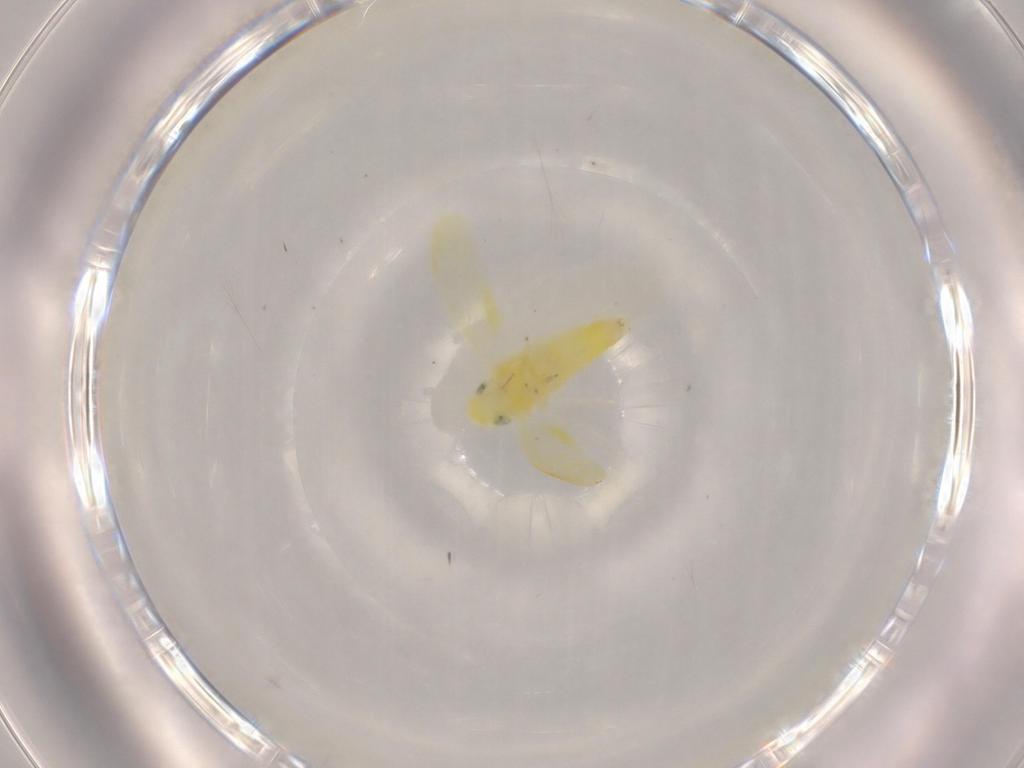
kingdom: Animalia
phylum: Arthropoda
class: Insecta
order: Hemiptera
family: Cicadellidae
